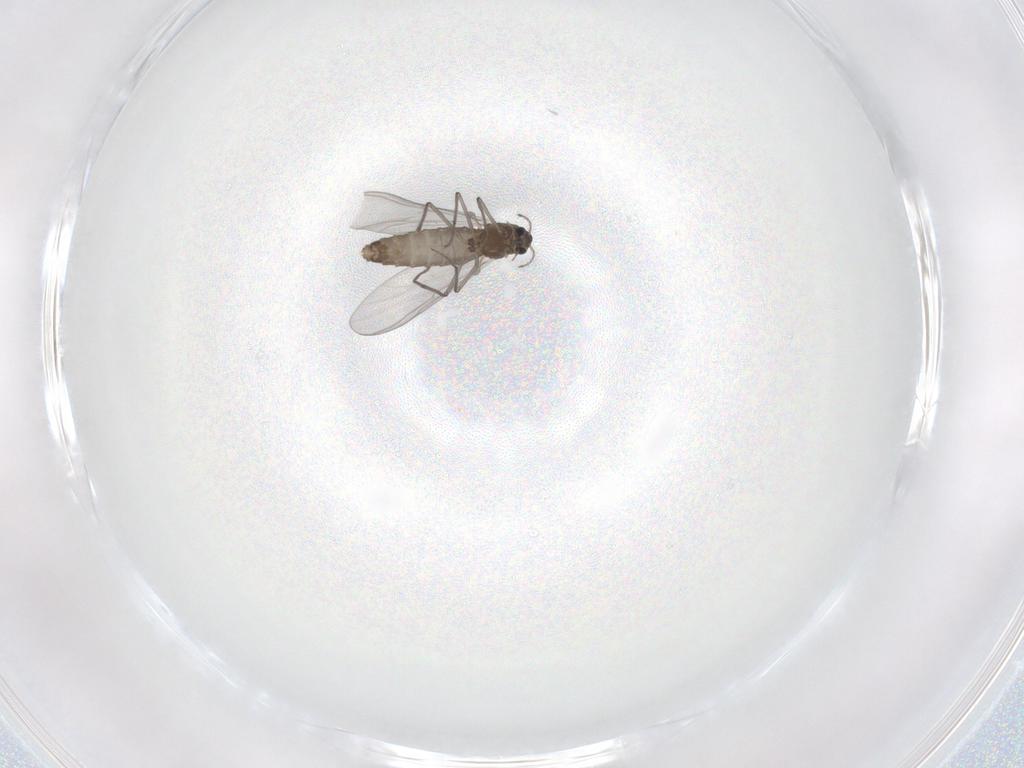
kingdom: Animalia
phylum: Arthropoda
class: Insecta
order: Diptera
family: Chironomidae
